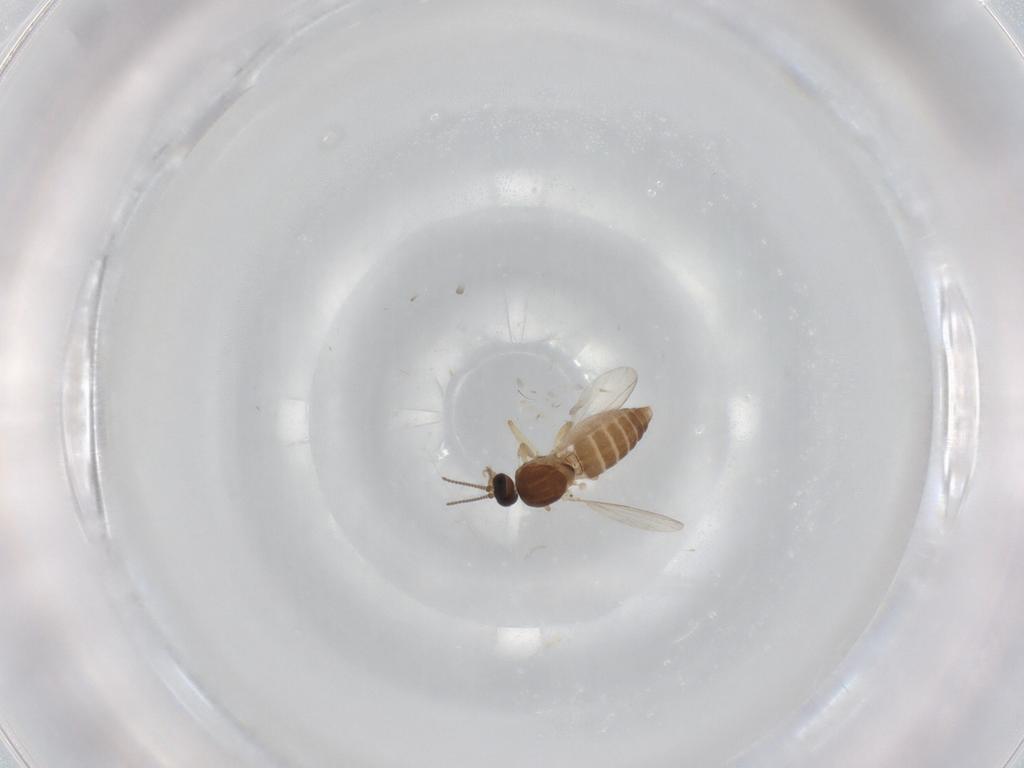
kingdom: Animalia
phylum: Arthropoda
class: Insecta
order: Diptera
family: Ceratopogonidae
